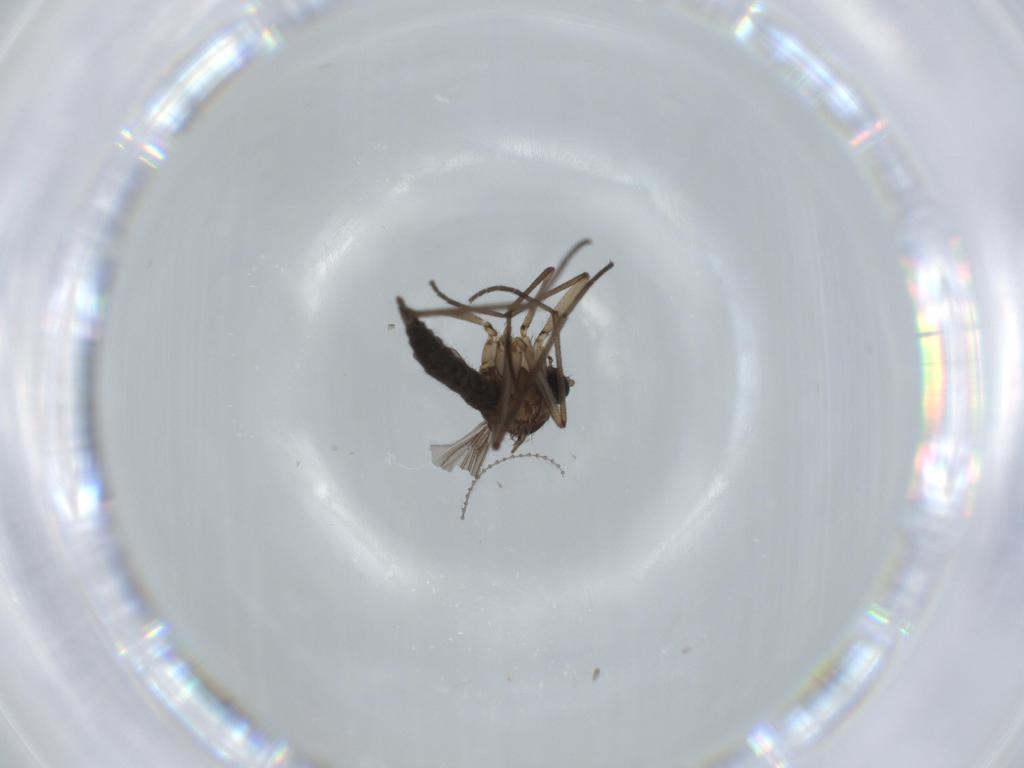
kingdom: Animalia
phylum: Arthropoda
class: Insecta
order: Diptera
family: Sciaridae
